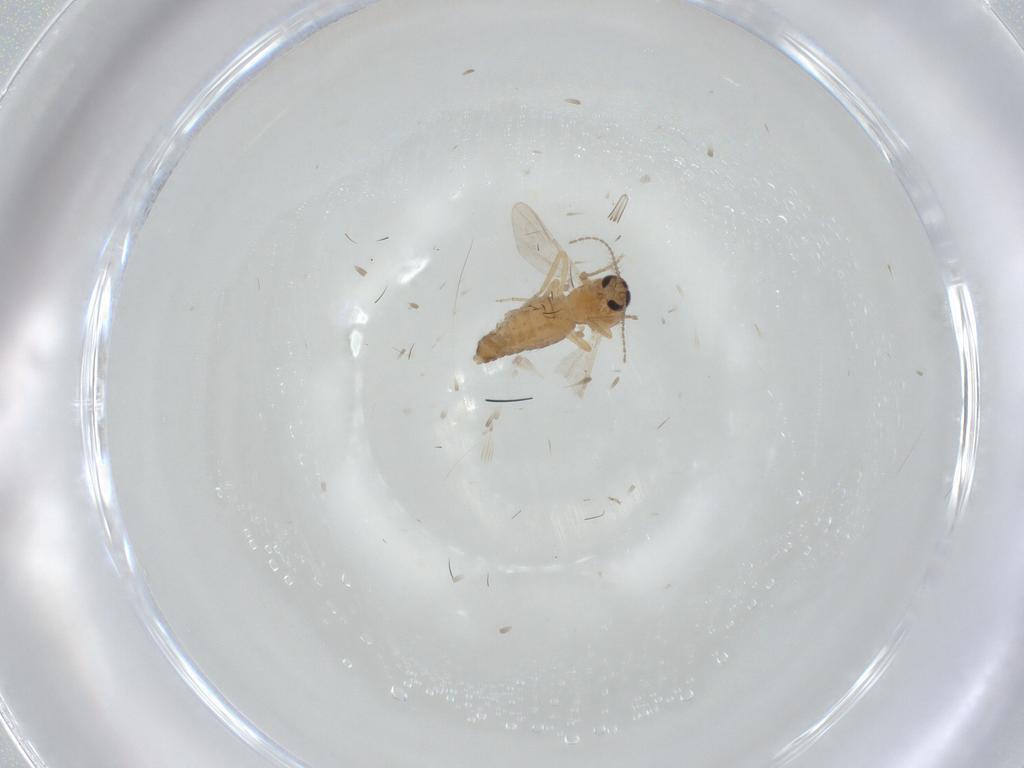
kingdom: Animalia
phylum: Arthropoda
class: Insecta
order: Diptera
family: Ceratopogonidae
